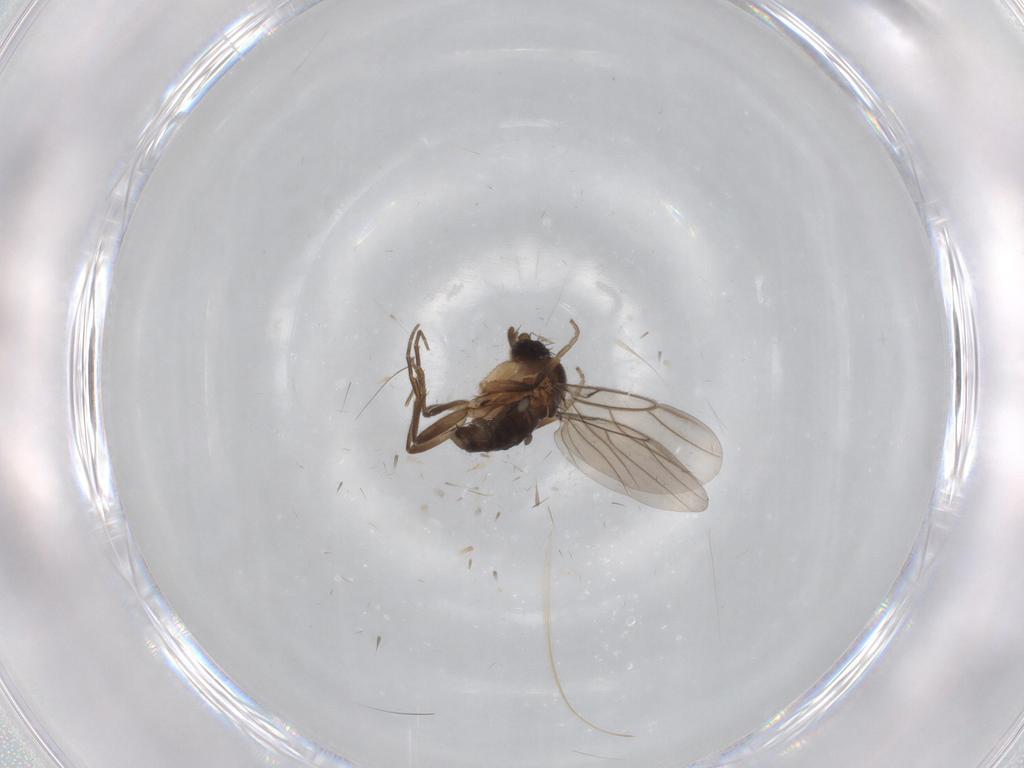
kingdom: Animalia
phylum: Arthropoda
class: Insecta
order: Diptera
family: Phoridae
